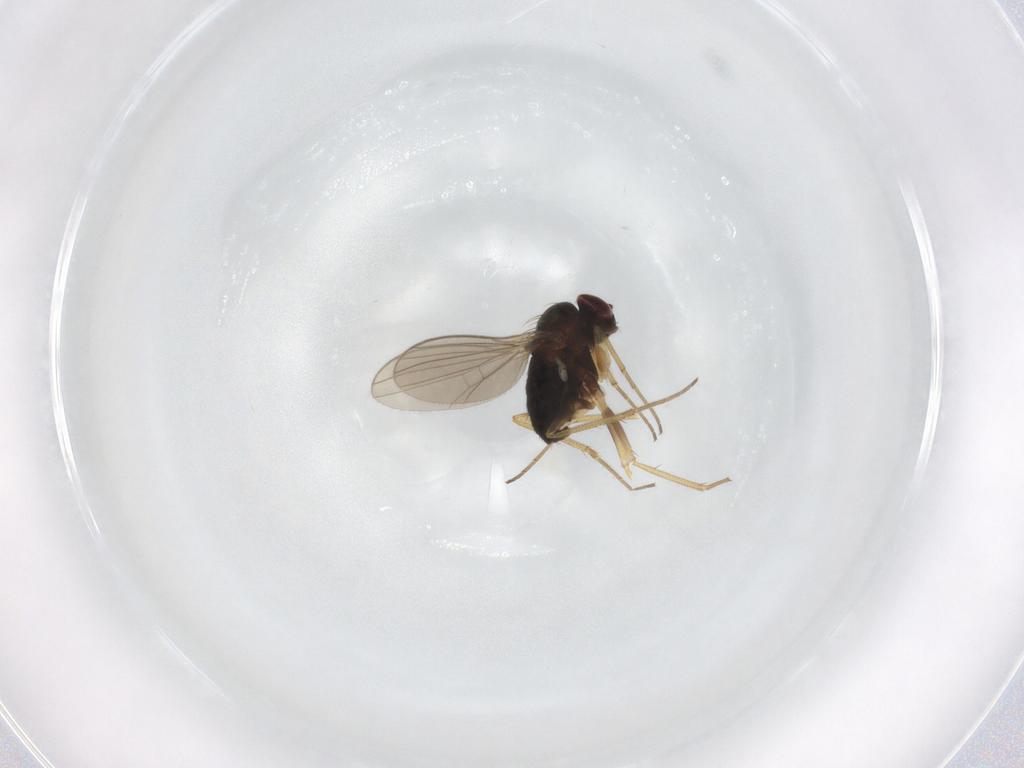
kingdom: Animalia
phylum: Arthropoda
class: Insecta
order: Diptera
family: Dolichopodidae
